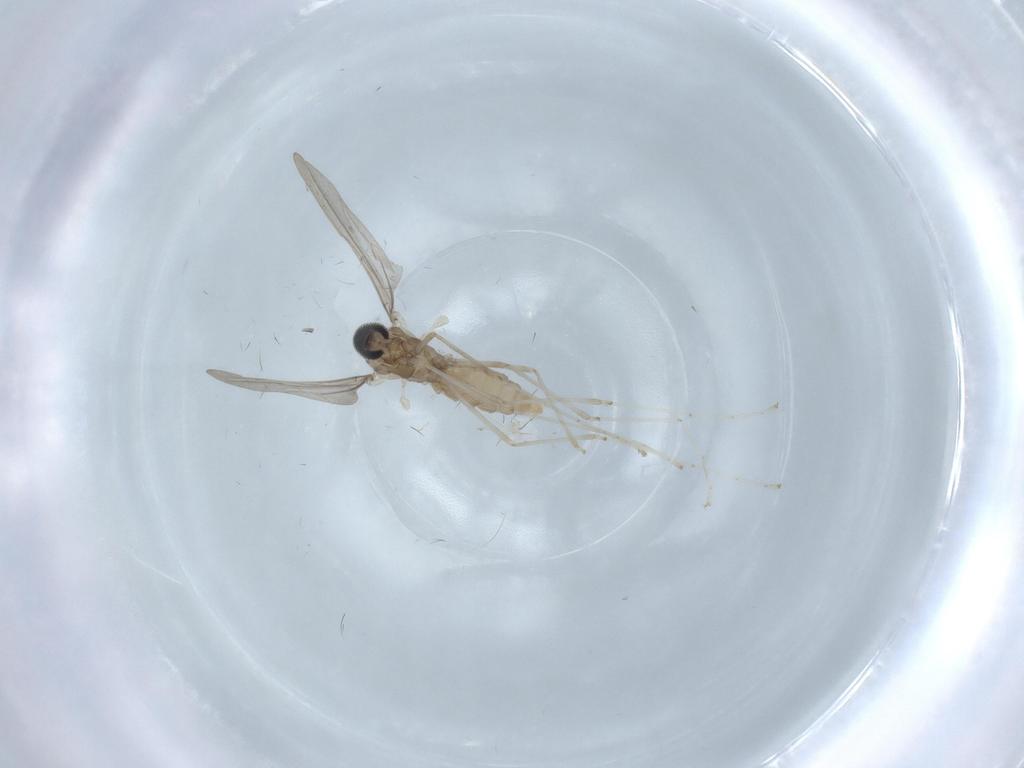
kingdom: Animalia
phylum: Arthropoda
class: Insecta
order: Diptera
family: Cecidomyiidae
